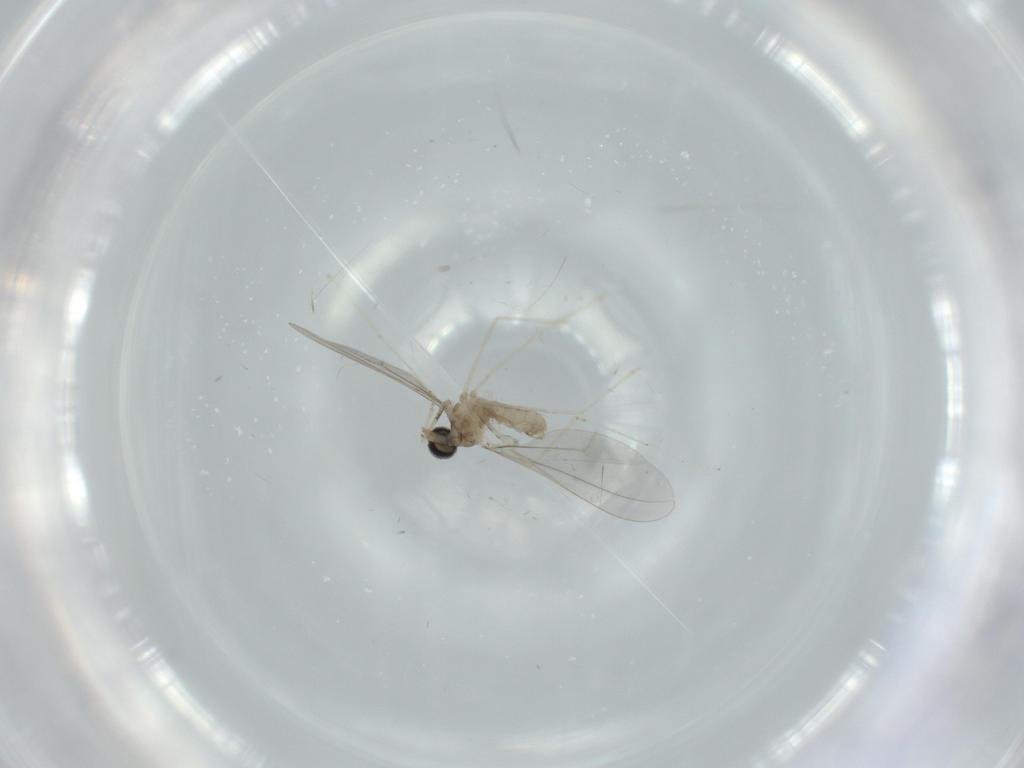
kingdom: Animalia
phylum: Arthropoda
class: Insecta
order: Diptera
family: Cecidomyiidae
